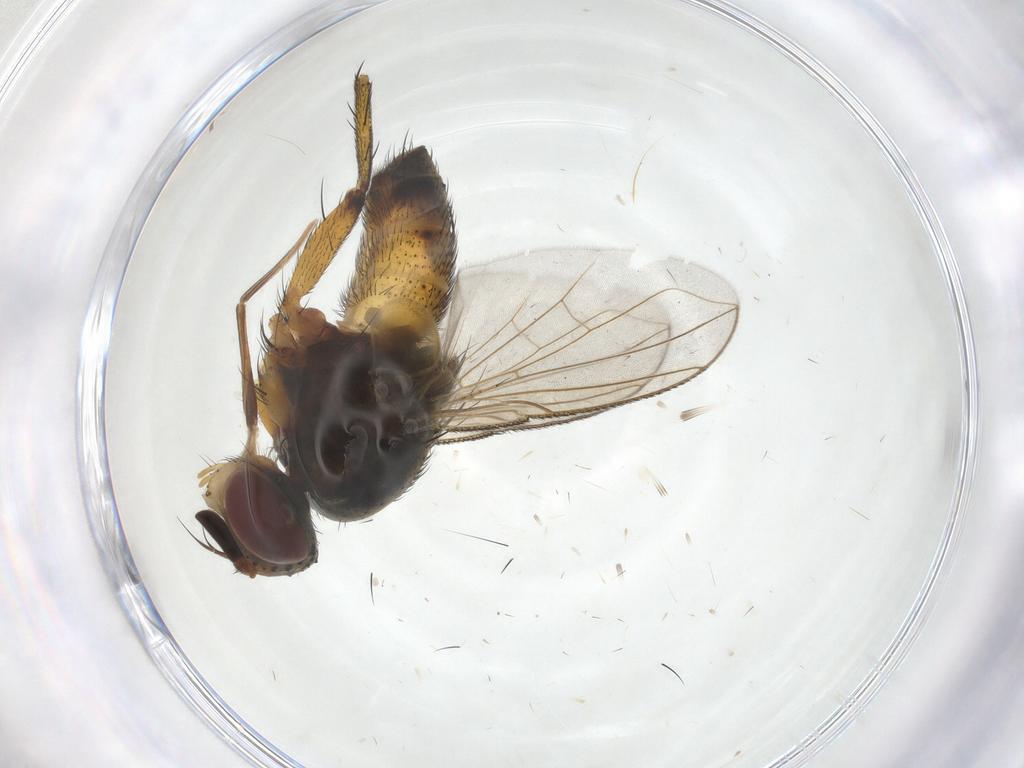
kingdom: Animalia
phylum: Arthropoda
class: Insecta
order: Diptera
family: Tachinidae
